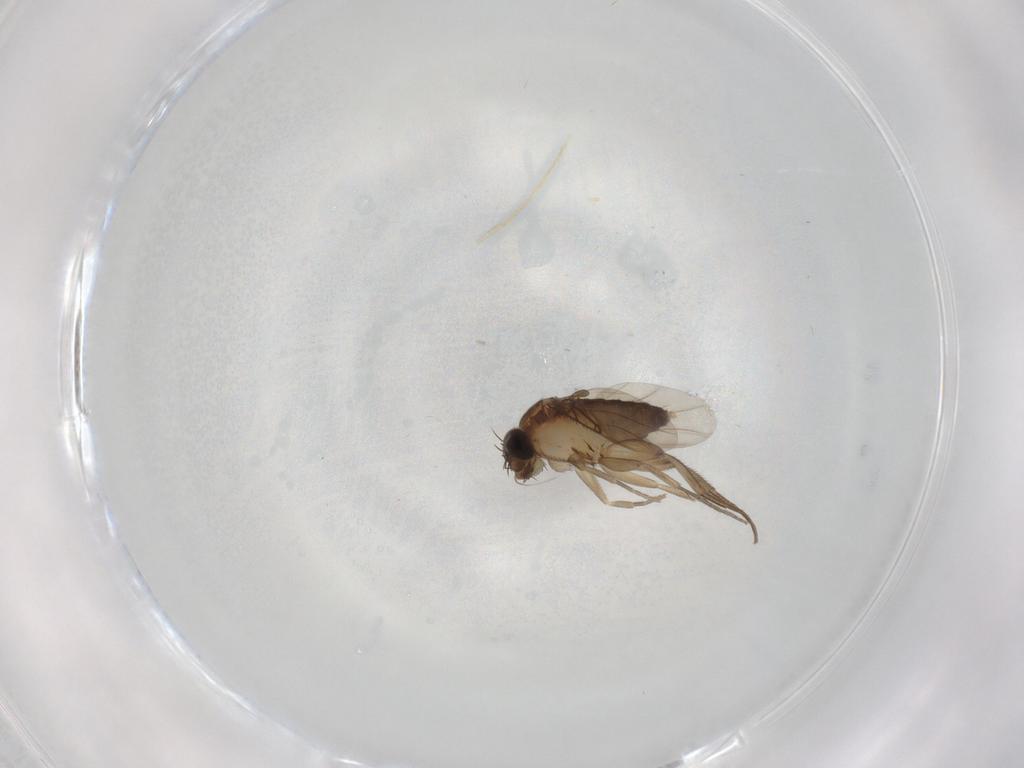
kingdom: Animalia
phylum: Arthropoda
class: Insecta
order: Diptera
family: Phoridae
